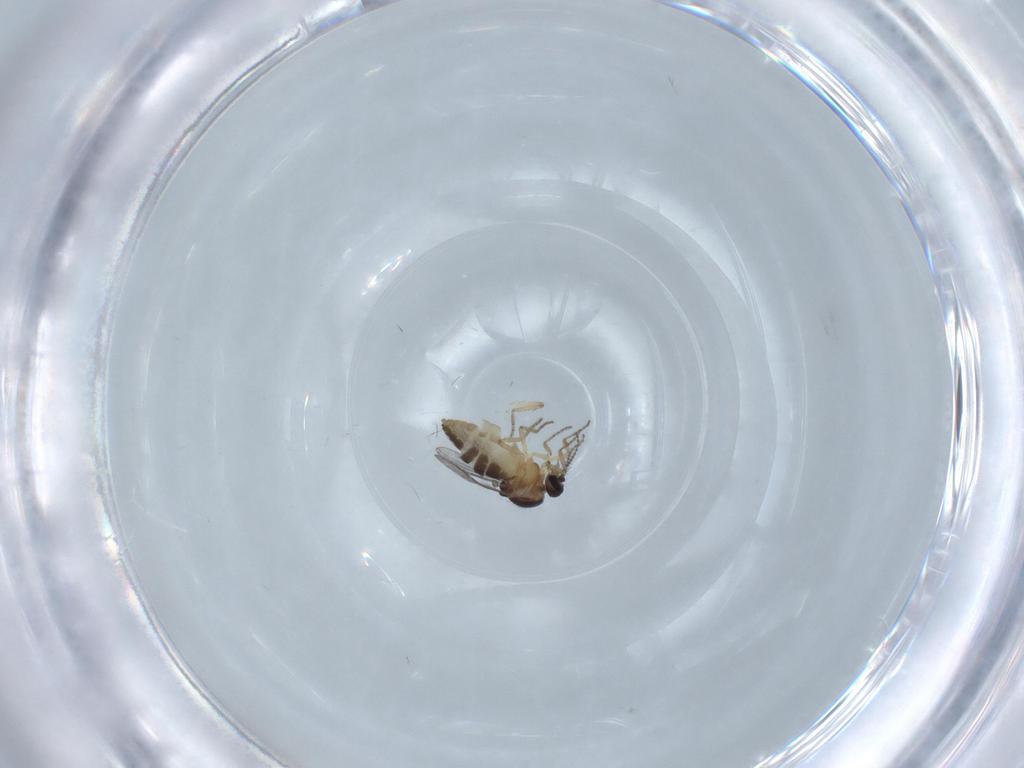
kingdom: Animalia
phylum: Arthropoda
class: Insecta
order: Diptera
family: Ceratopogonidae
